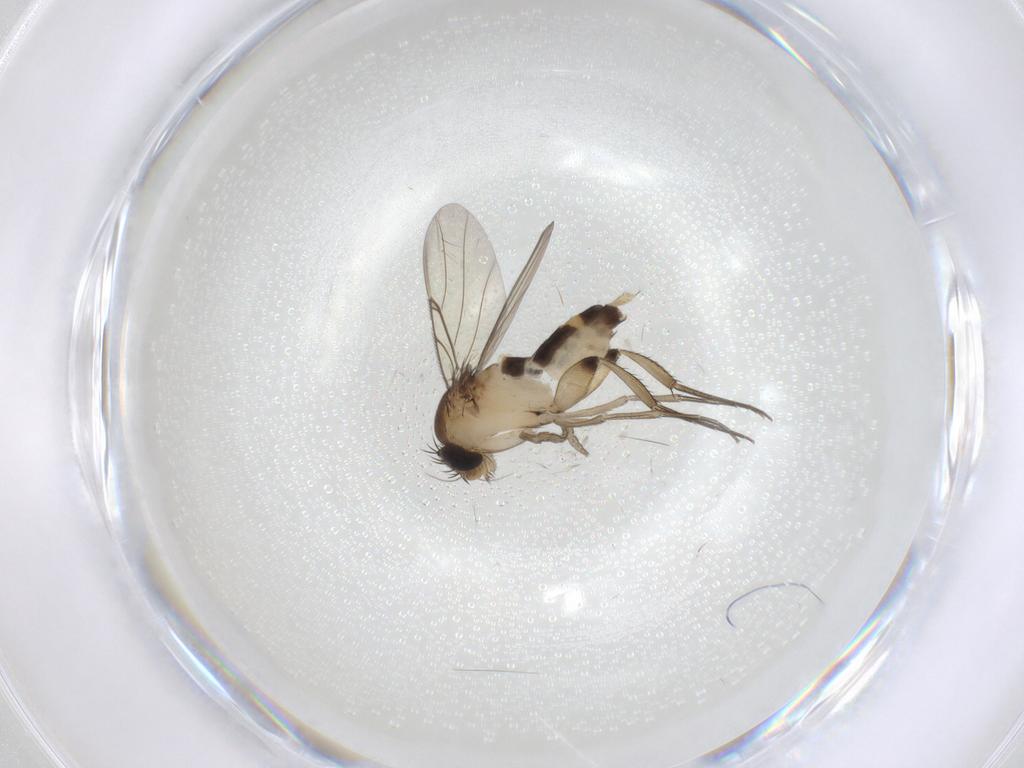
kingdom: Animalia
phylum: Arthropoda
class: Insecta
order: Diptera
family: Phoridae
